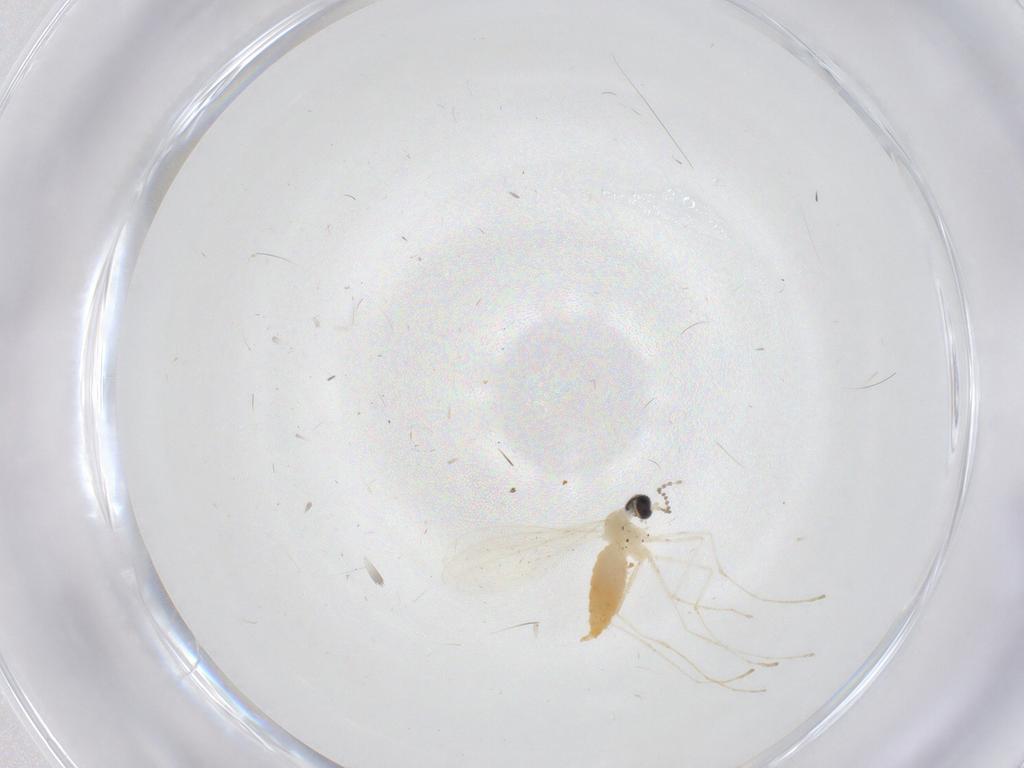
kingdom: Animalia
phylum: Arthropoda
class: Insecta
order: Diptera
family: Cecidomyiidae
